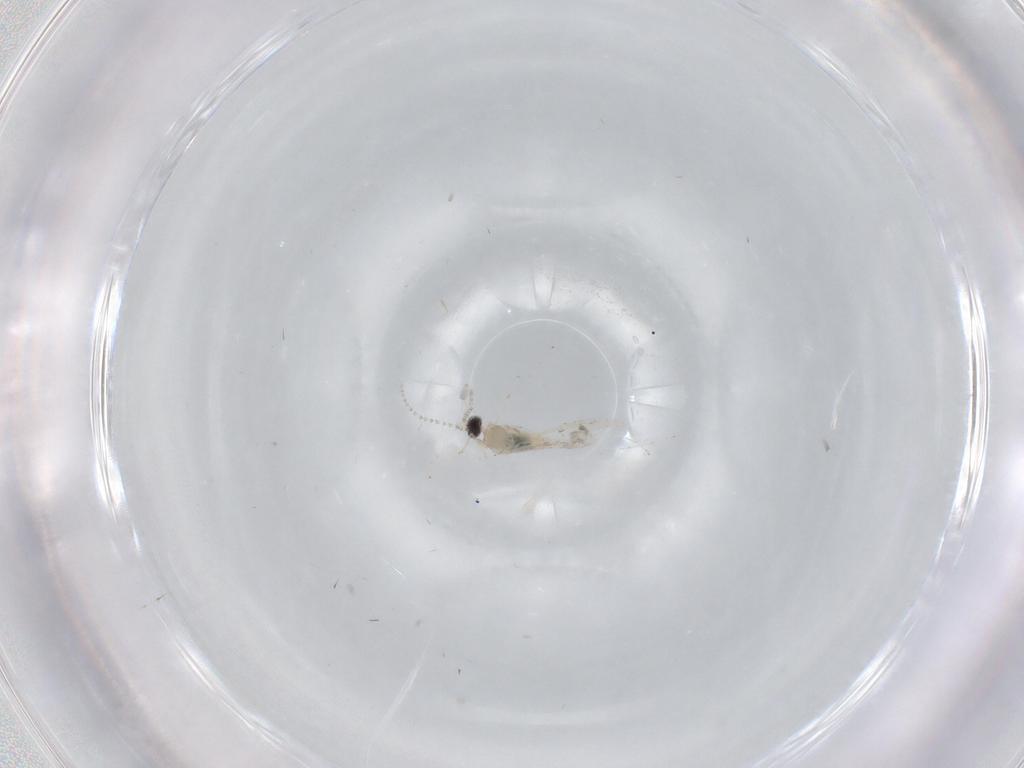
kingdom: Animalia
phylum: Arthropoda
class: Insecta
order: Diptera
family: Cecidomyiidae
